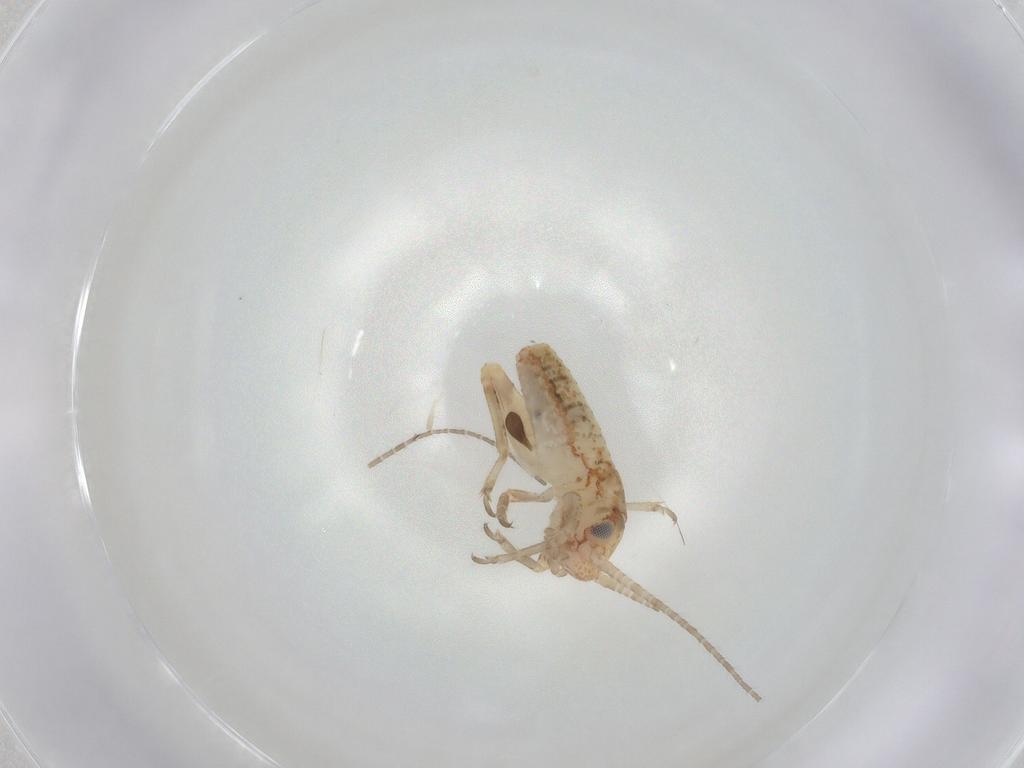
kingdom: Animalia
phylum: Arthropoda
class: Insecta
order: Orthoptera
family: Mogoplistidae
